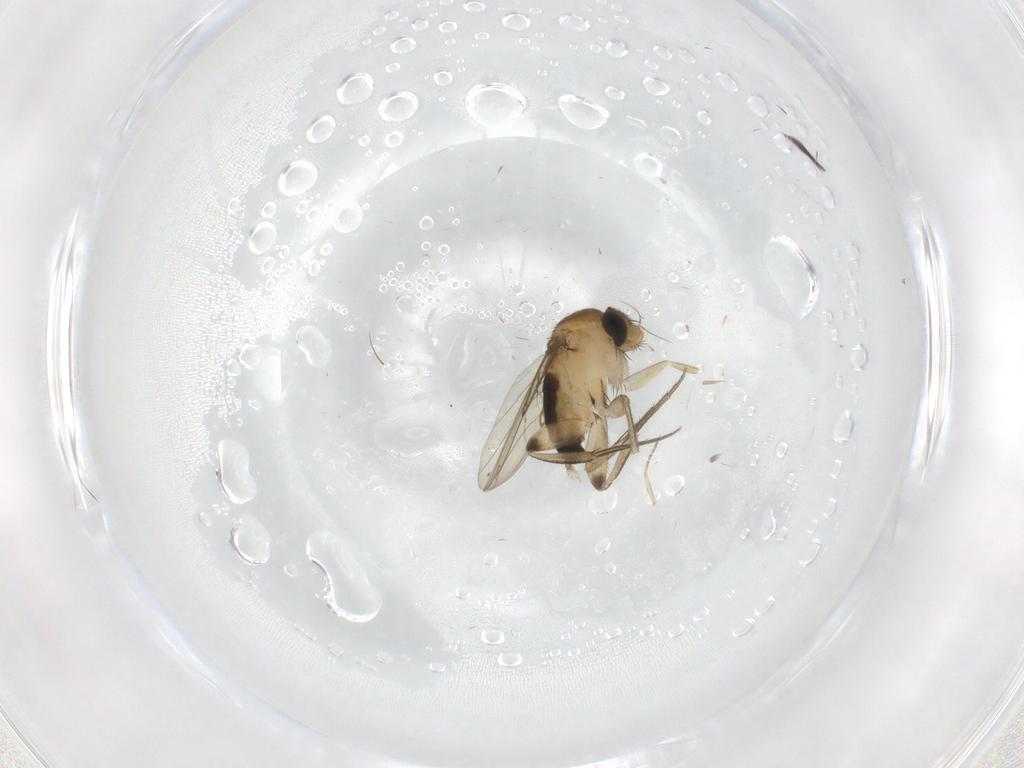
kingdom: Animalia
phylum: Arthropoda
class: Insecta
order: Diptera
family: Phoridae
